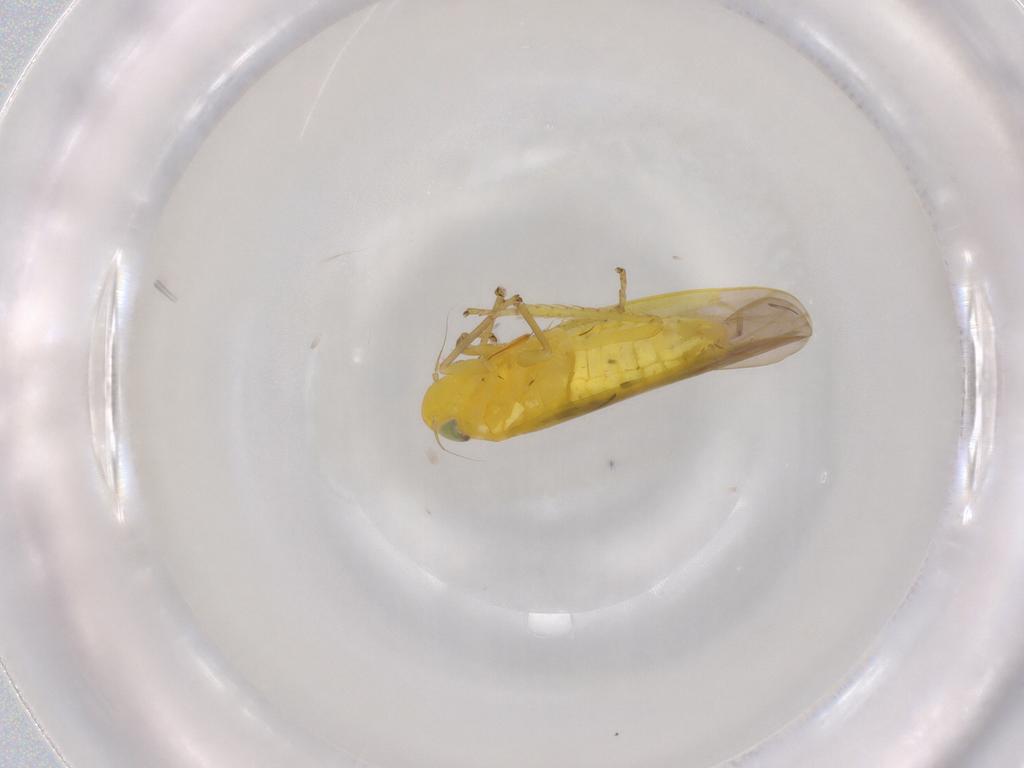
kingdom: Animalia
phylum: Arthropoda
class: Insecta
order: Hemiptera
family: Cicadellidae
